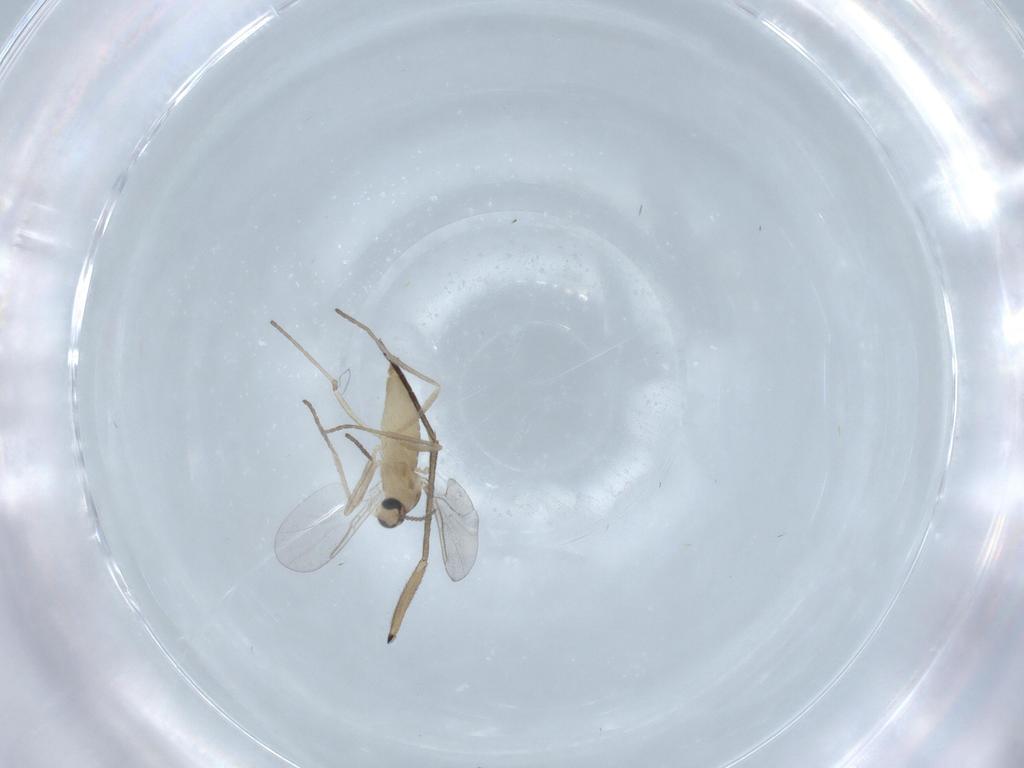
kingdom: Animalia
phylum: Arthropoda
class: Insecta
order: Diptera
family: Cecidomyiidae
